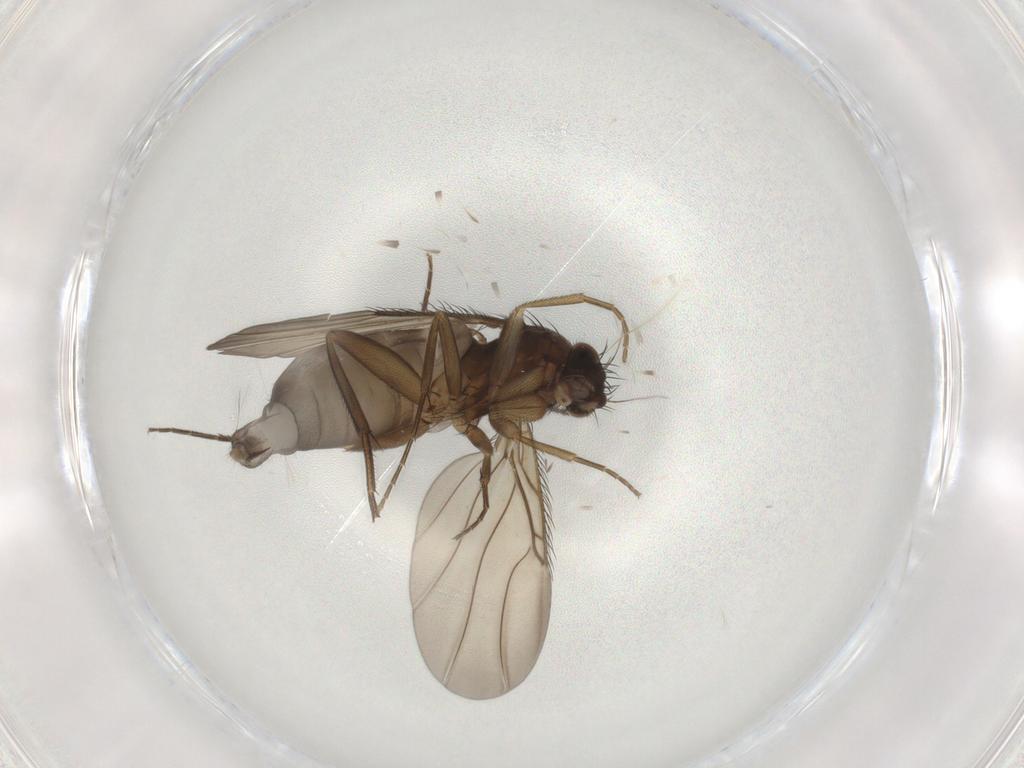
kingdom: Animalia
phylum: Arthropoda
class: Insecta
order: Diptera
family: Phoridae
